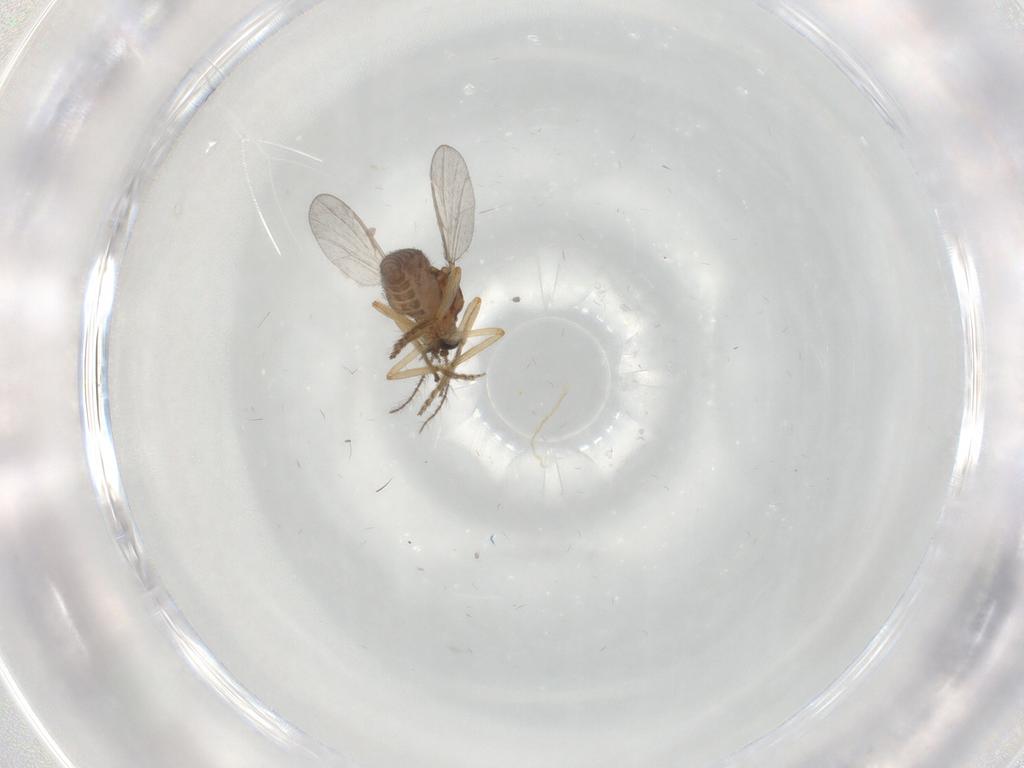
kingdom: Animalia
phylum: Arthropoda
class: Insecta
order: Diptera
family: Ceratopogonidae
